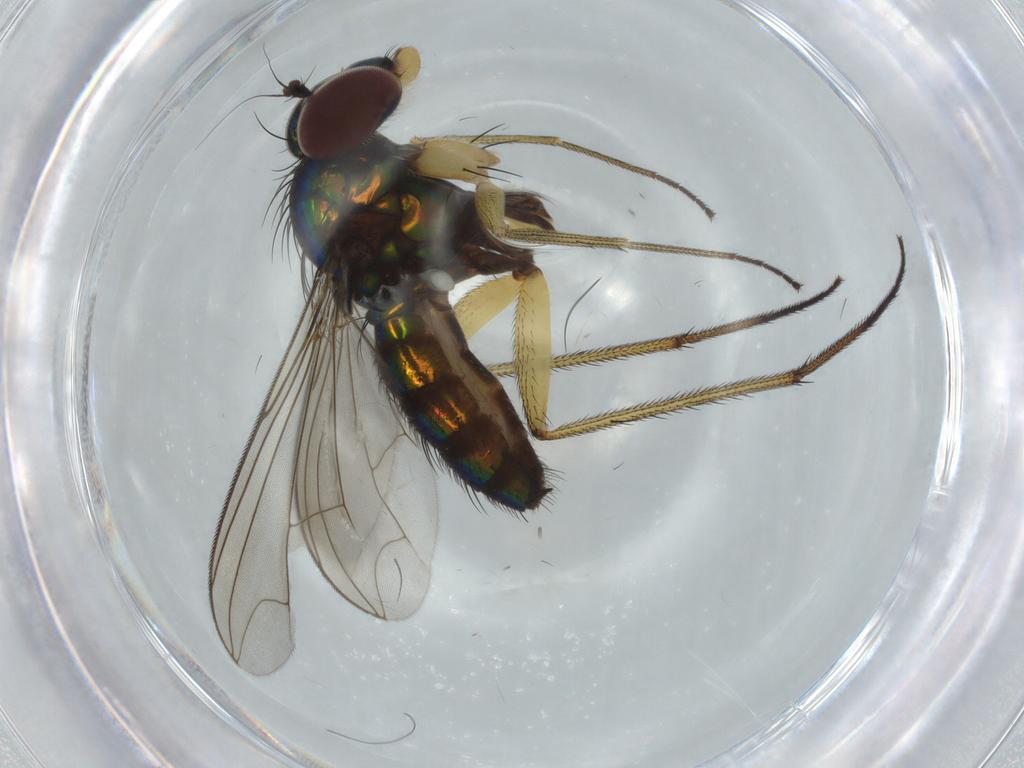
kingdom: Animalia
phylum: Arthropoda
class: Insecta
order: Diptera
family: Dolichopodidae
